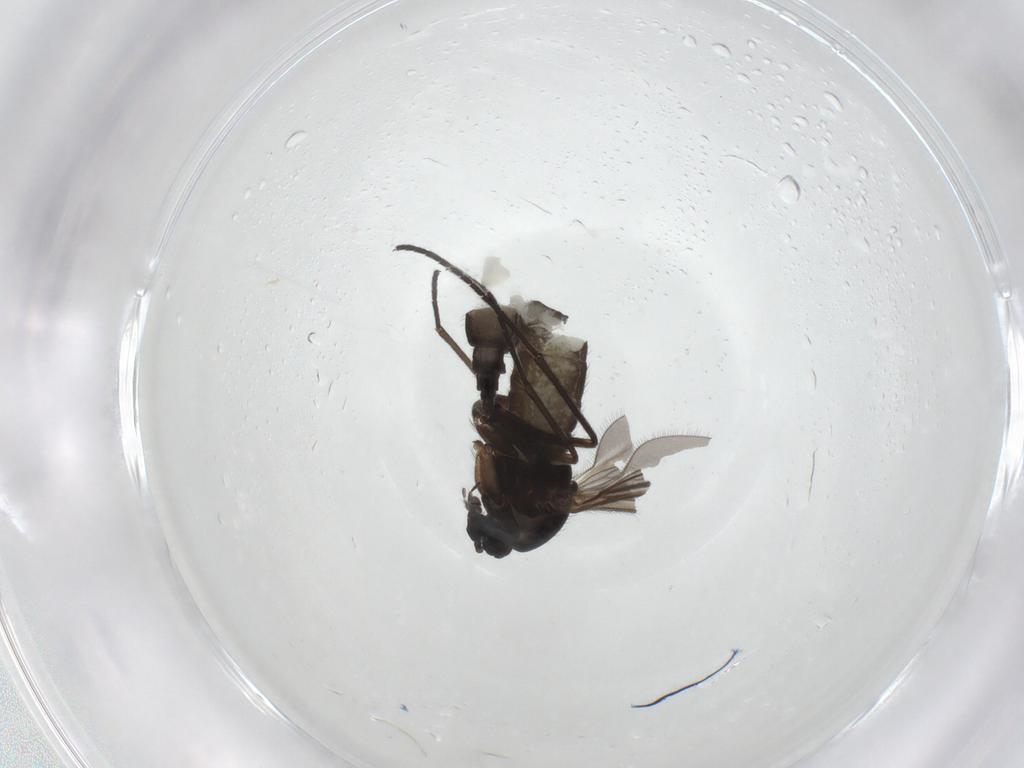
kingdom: Animalia
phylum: Arthropoda
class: Insecta
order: Diptera
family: Sciaridae
